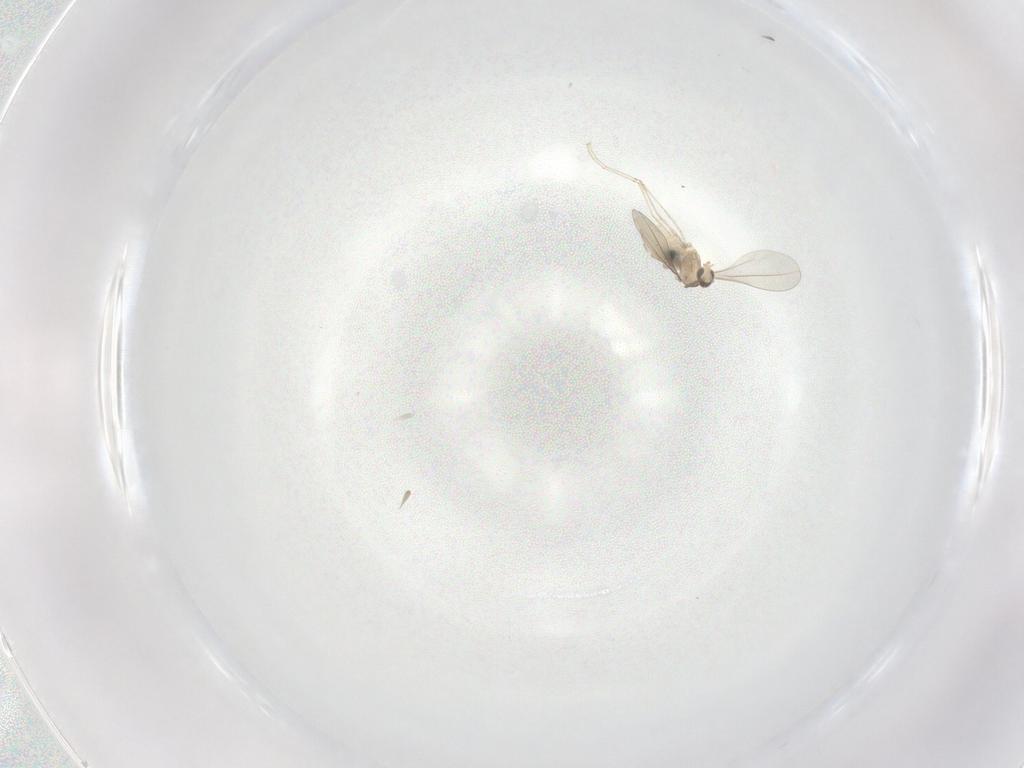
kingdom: Animalia
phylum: Arthropoda
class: Insecta
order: Diptera
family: Cecidomyiidae
